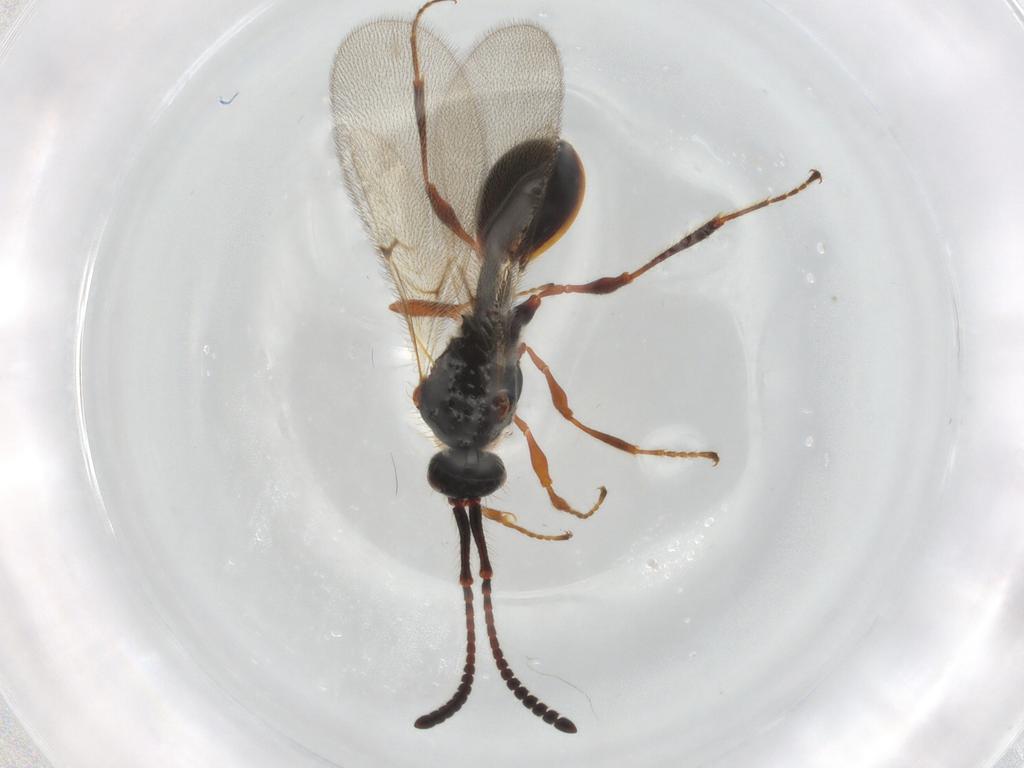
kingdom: Animalia
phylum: Arthropoda
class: Insecta
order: Hymenoptera
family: Diapriidae
